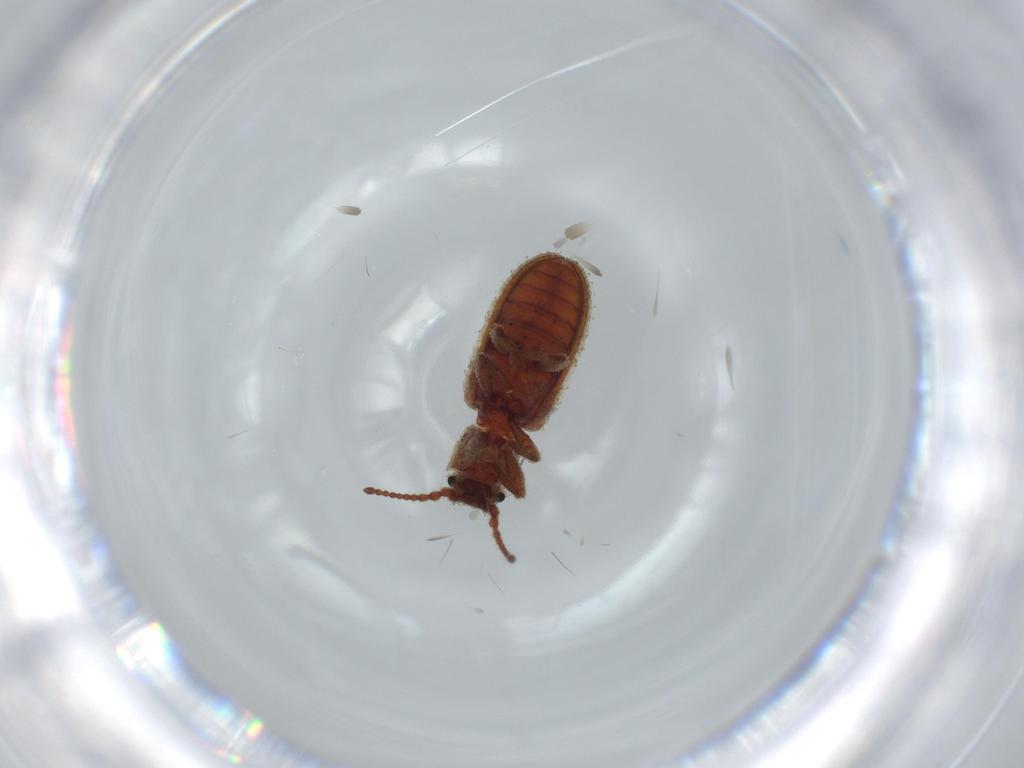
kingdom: Animalia
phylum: Arthropoda
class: Insecta
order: Coleoptera
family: Coccinellidae
